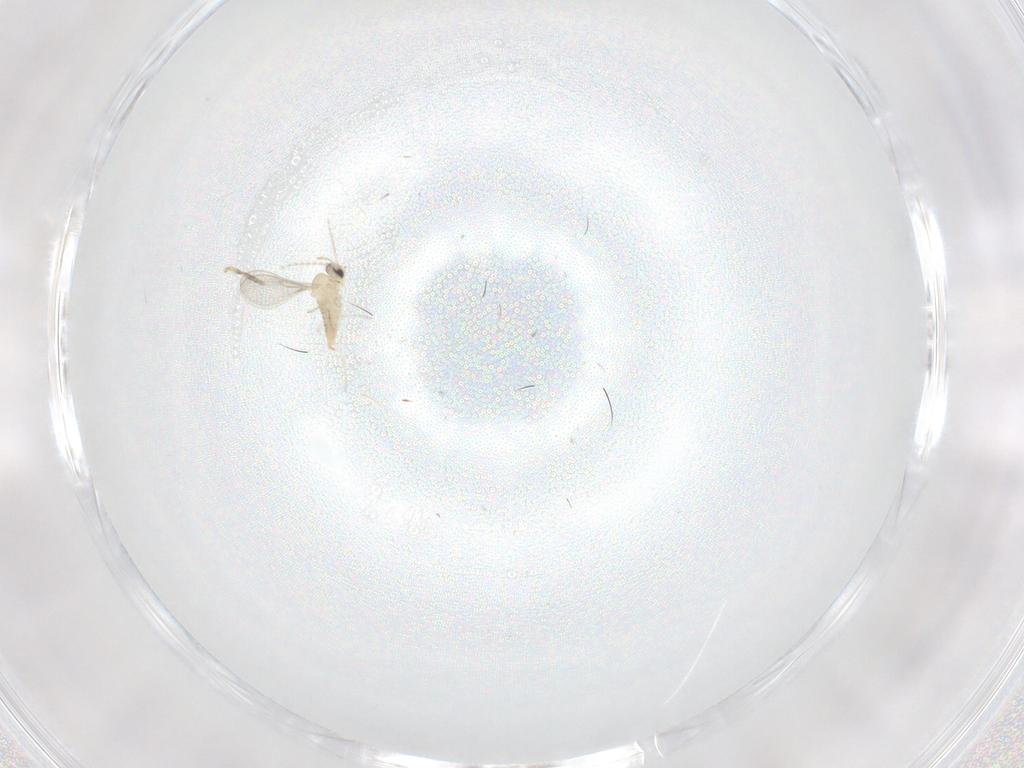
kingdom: Animalia
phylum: Arthropoda
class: Insecta
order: Diptera
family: Chironomidae
